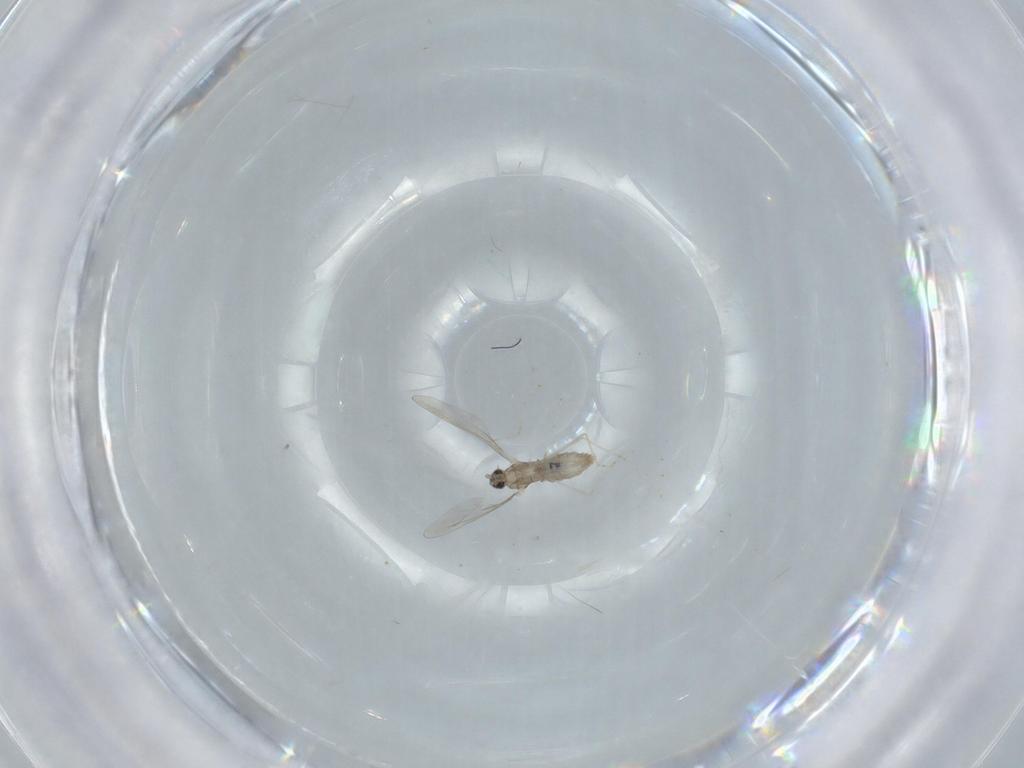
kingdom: Animalia
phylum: Arthropoda
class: Insecta
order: Diptera
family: Cecidomyiidae
